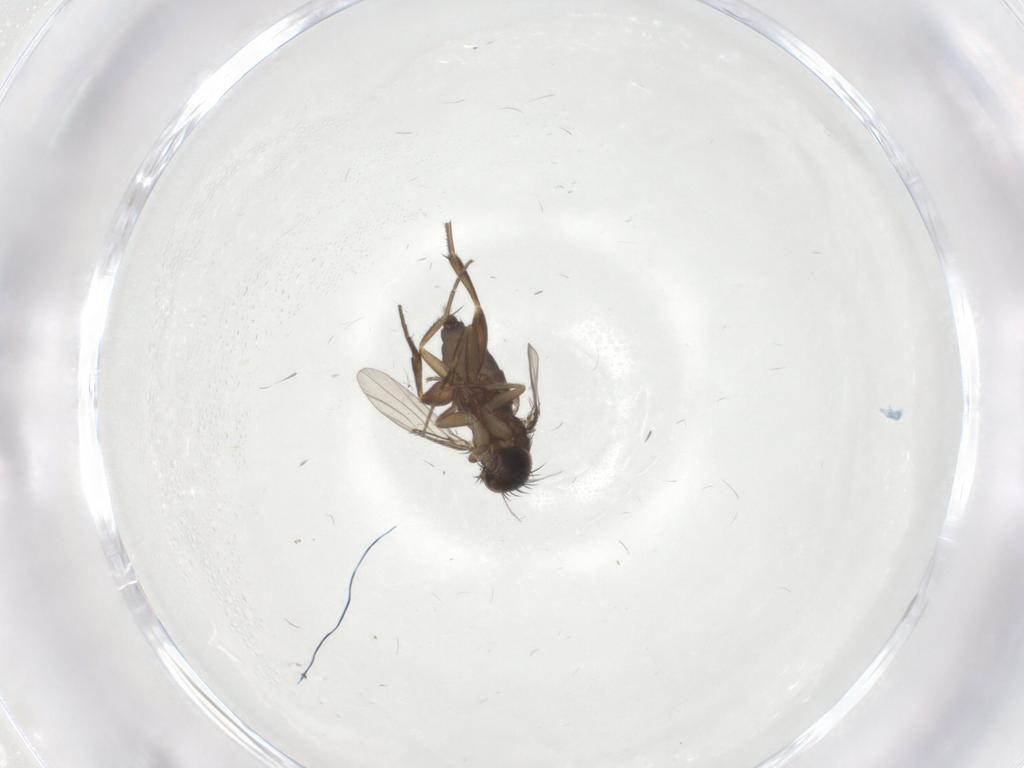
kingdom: Animalia
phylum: Arthropoda
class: Insecta
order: Diptera
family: Phoridae
